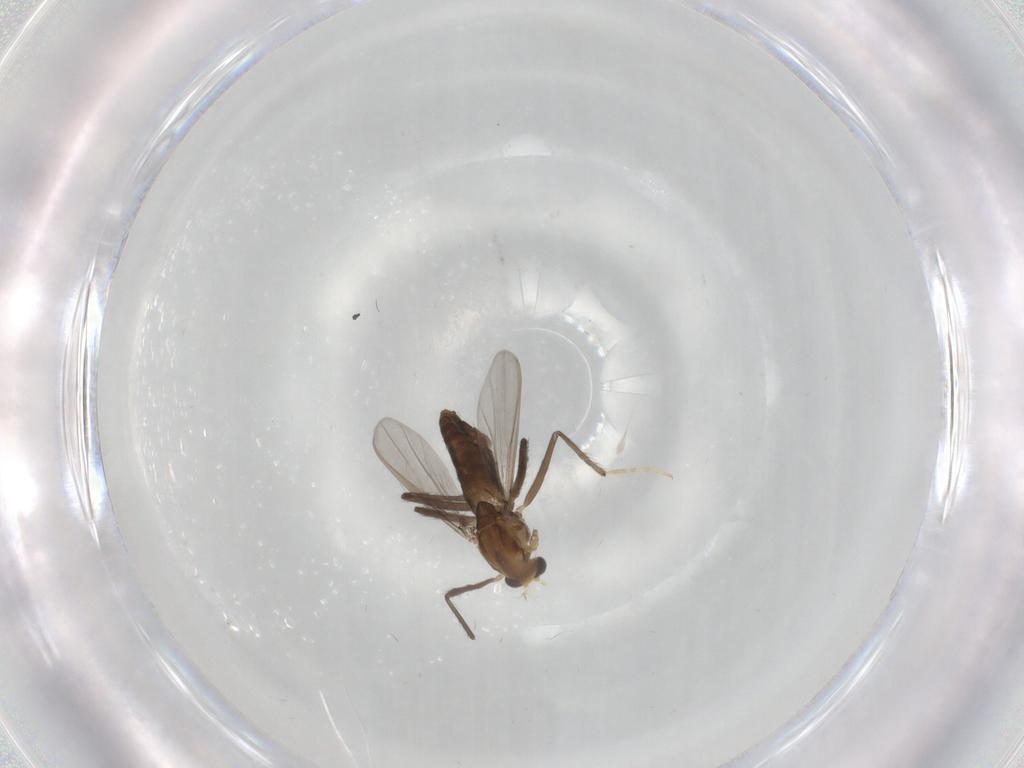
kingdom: Animalia
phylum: Arthropoda
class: Insecta
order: Diptera
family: Chironomidae
